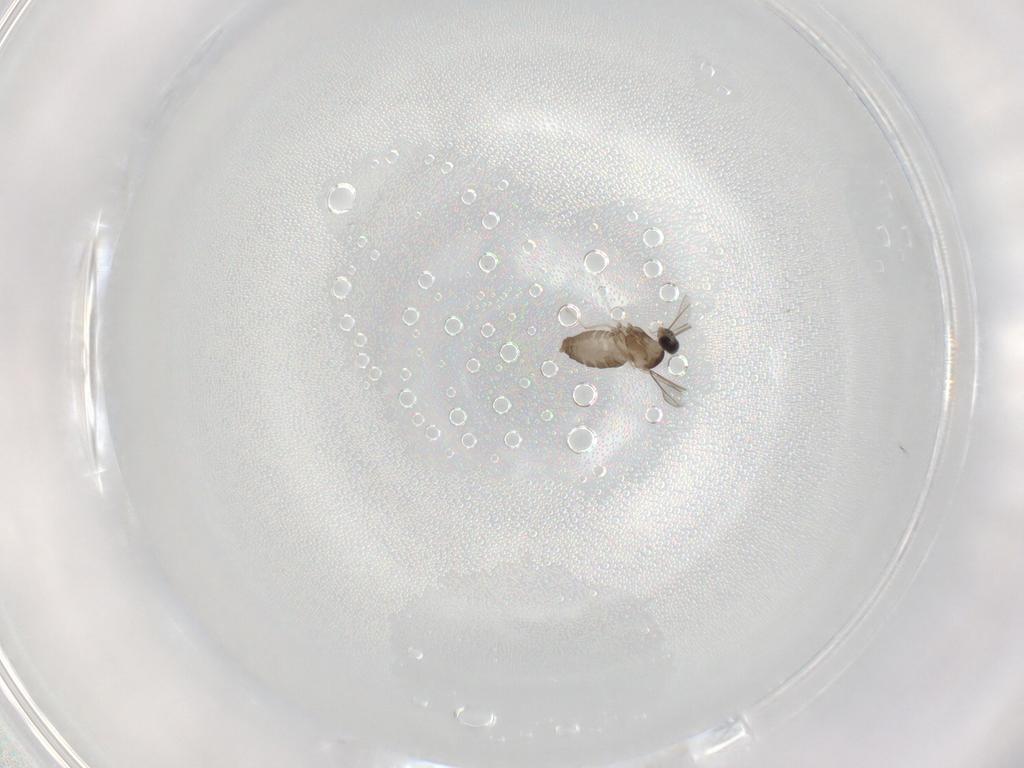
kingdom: Animalia
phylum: Arthropoda
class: Insecta
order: Diptera
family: Cecidomyiidae
